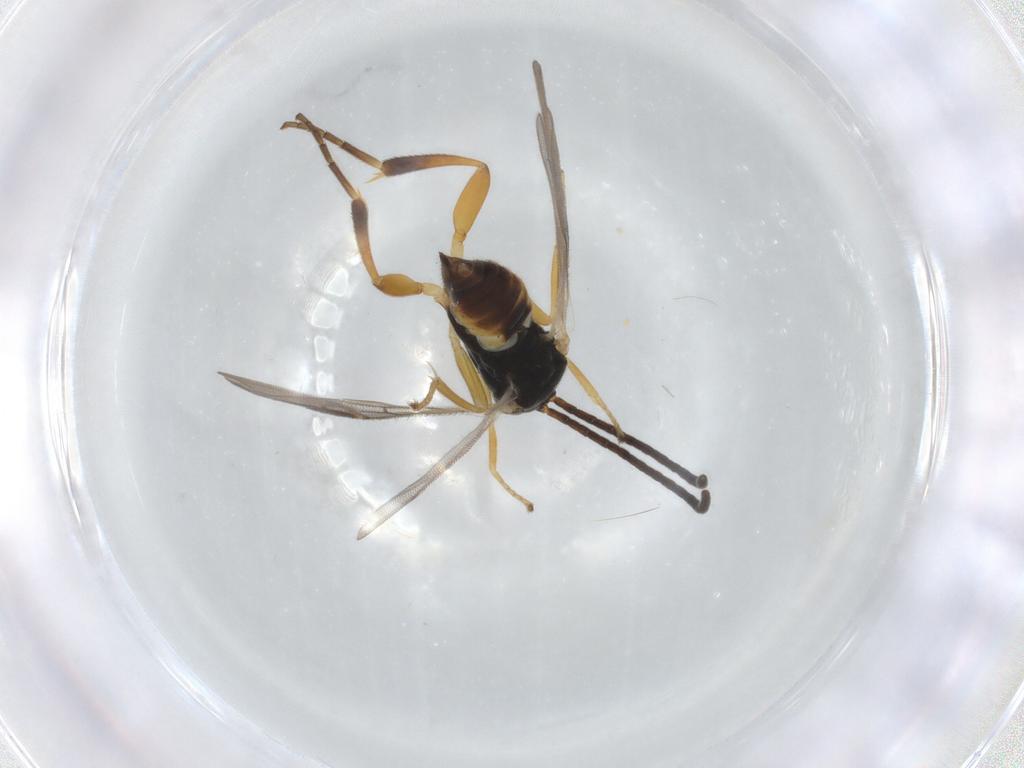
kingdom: Animalia
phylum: Arthropoda
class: Insecta
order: Hymenoptera
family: Braconidae
